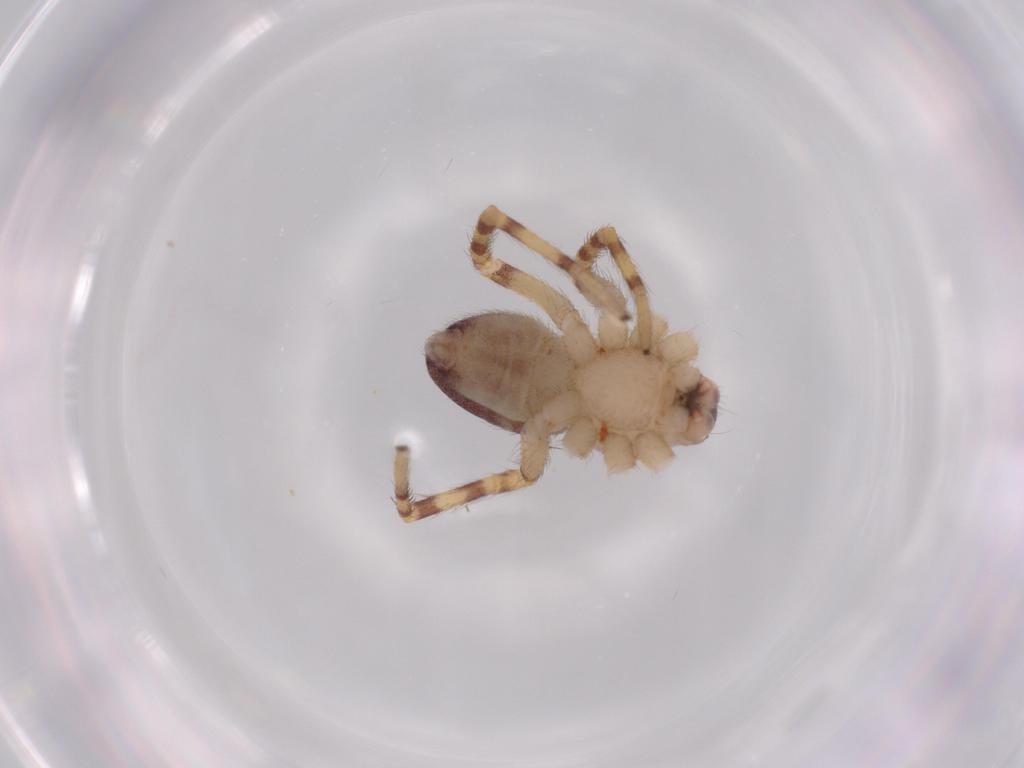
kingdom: Animalia
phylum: Arthropoda
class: Arachnida
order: Araneae
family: Corinnidae
